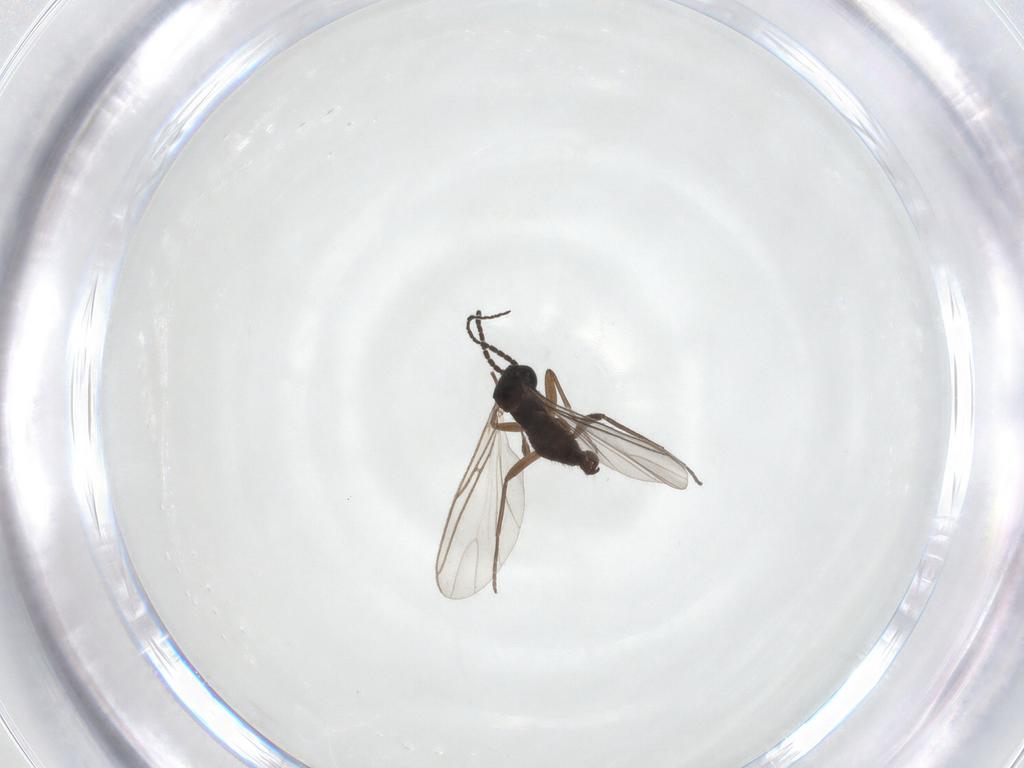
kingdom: Animalia
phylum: Arthropoda
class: Insecta
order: Diptera
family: Sciaridae
